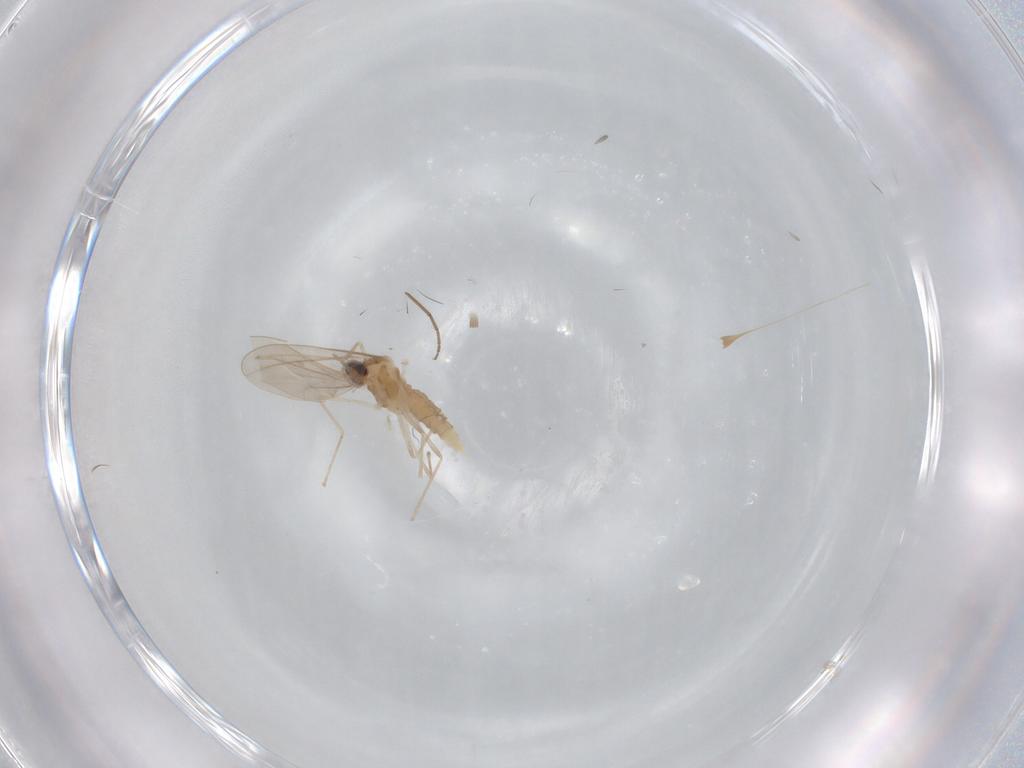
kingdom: Animalia
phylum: Arthropoda
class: Insecta
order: Diptera
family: Cecidomyiidae
